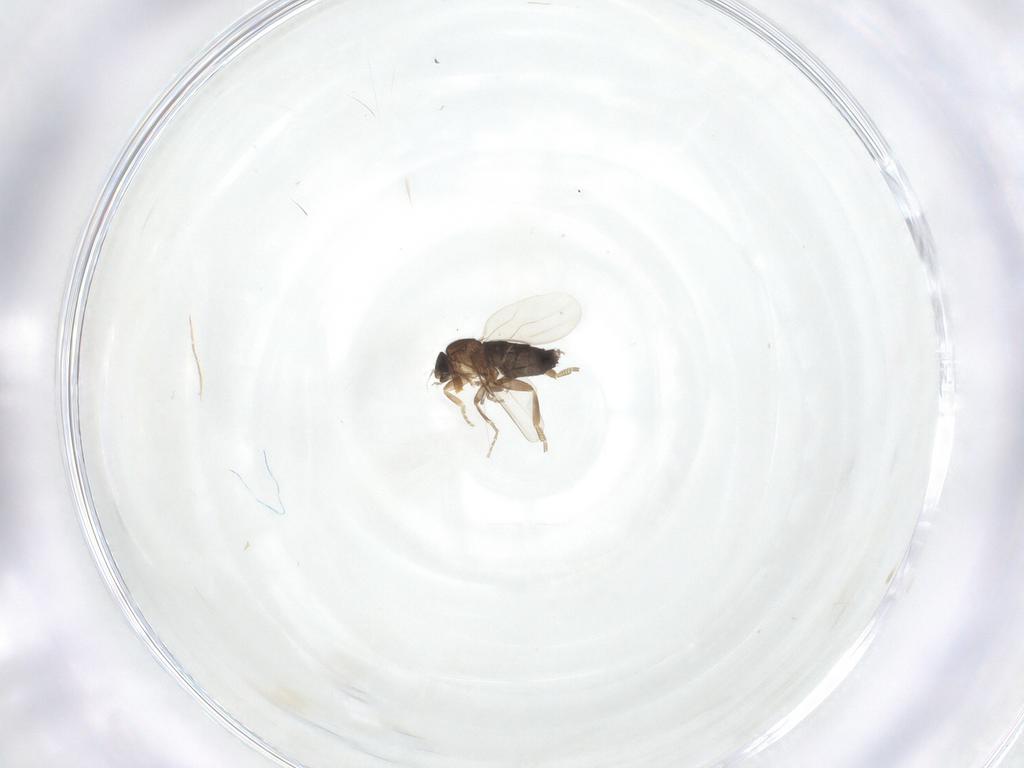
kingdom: Animalia
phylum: Arthropoda
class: Insecta
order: Diptera
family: Phoridae
